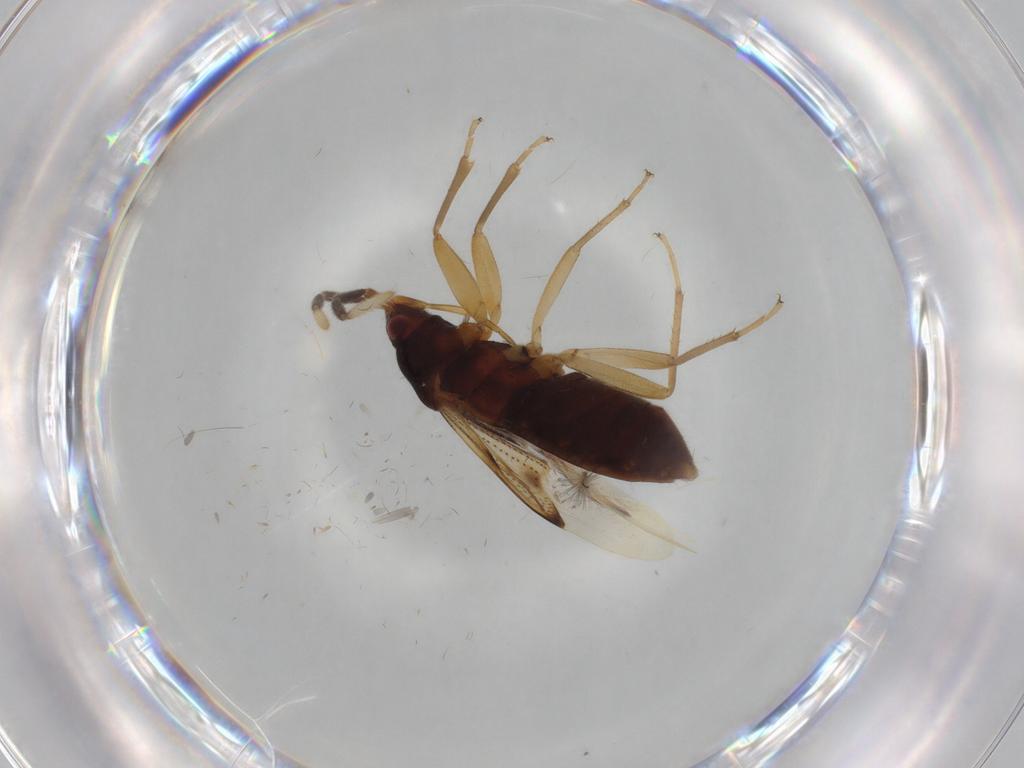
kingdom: Animalia
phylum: Arthropoda
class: Insecta
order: Hemiptera
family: Rhyparochromidae
